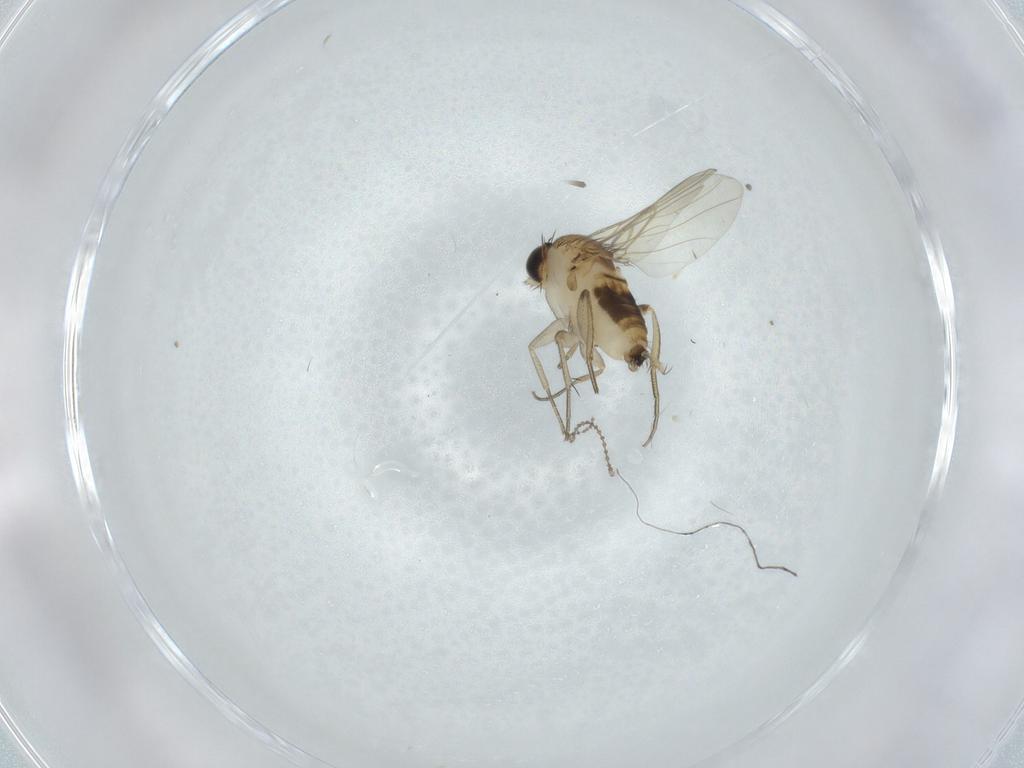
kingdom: Animalia
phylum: Arthropoda
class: Insecta
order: Diptera
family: Phoridae
